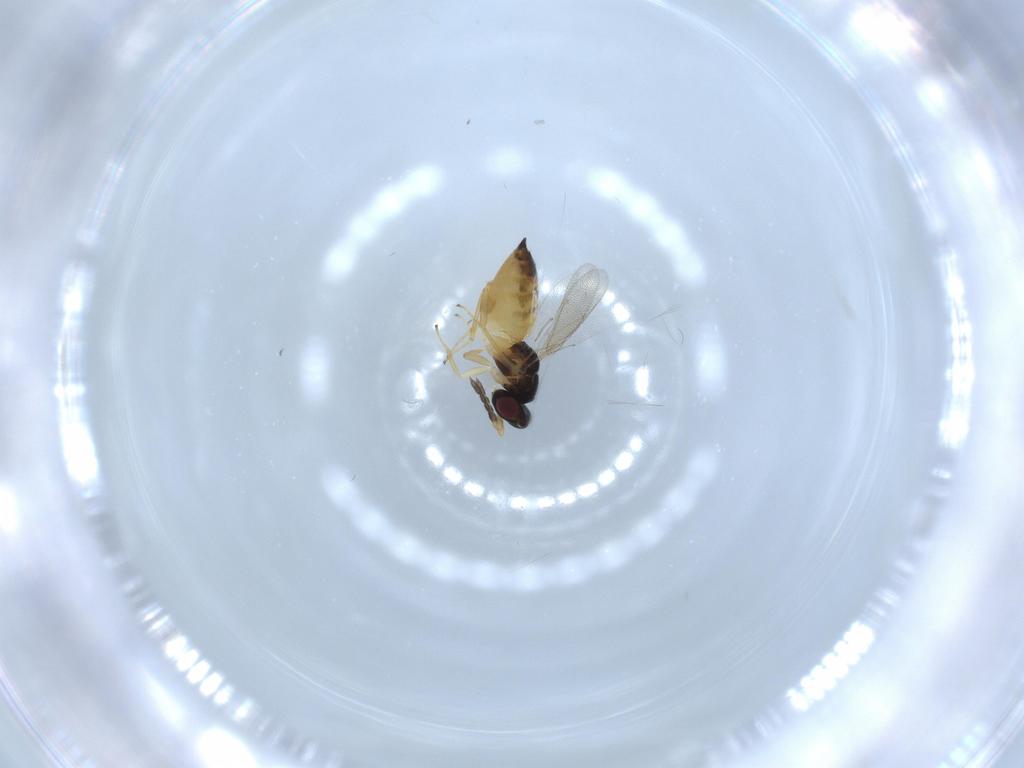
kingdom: Animalia
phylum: Arthropoda
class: Insecta
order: Hymenoptera
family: Eulophidae
